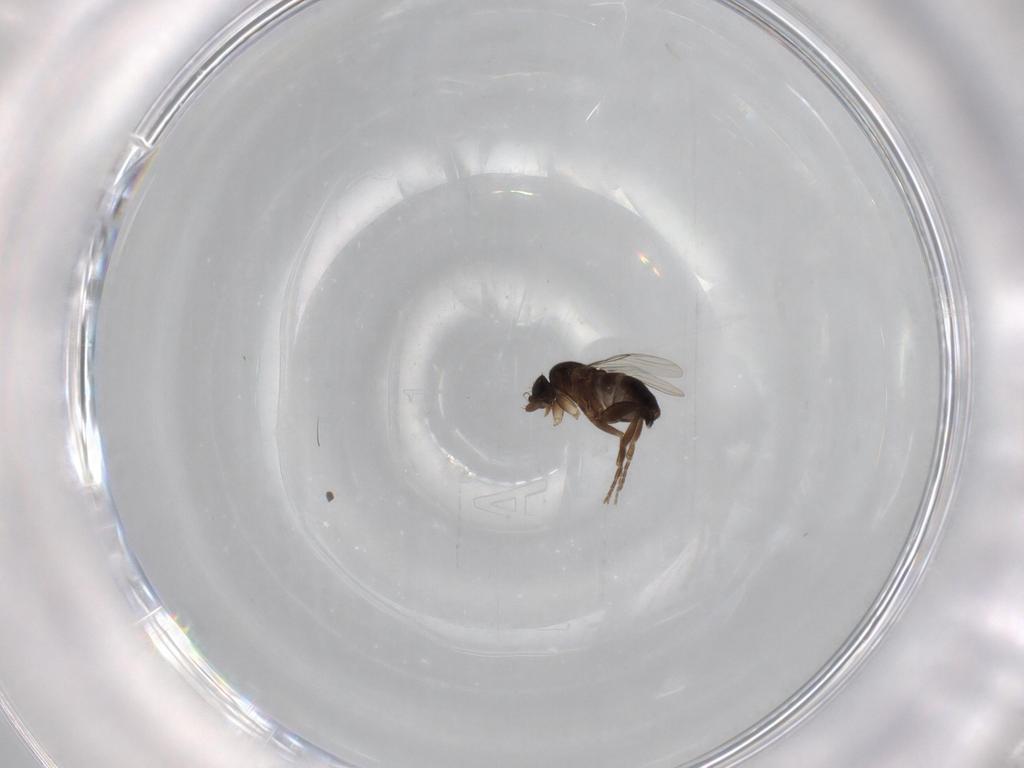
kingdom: Animalia
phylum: Arthropoda
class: Insecta
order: Diptera
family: Phoridae
